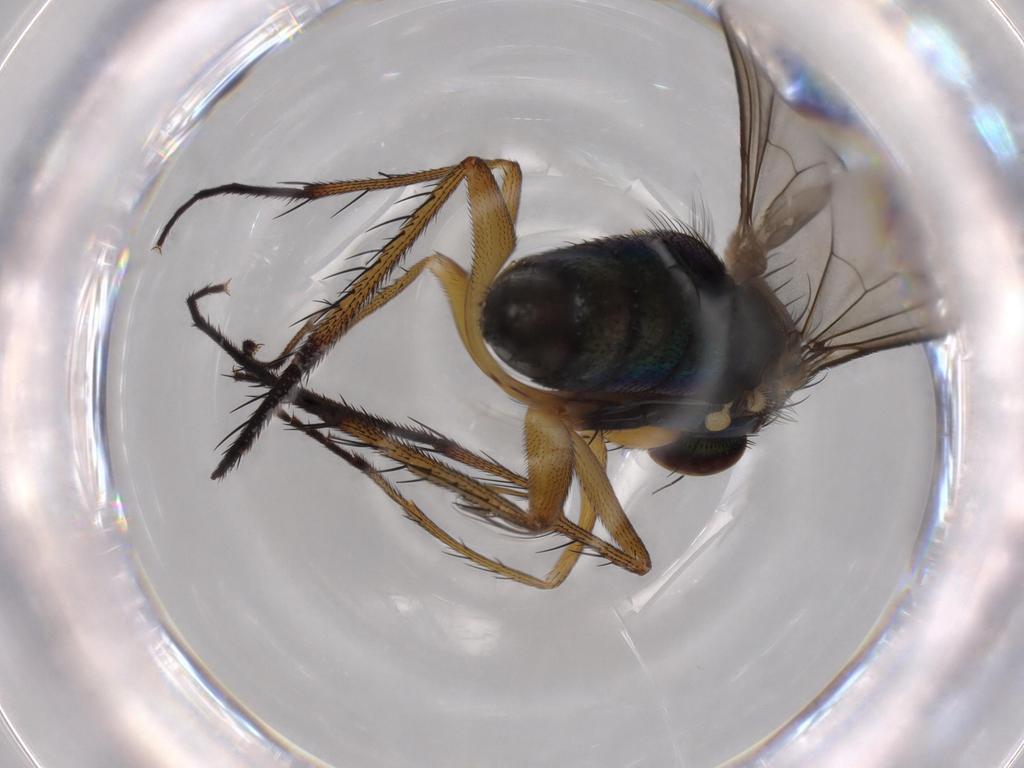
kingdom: Animalia
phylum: Arthropoda
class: Insecta
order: Diptera
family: Dolichopodidae
